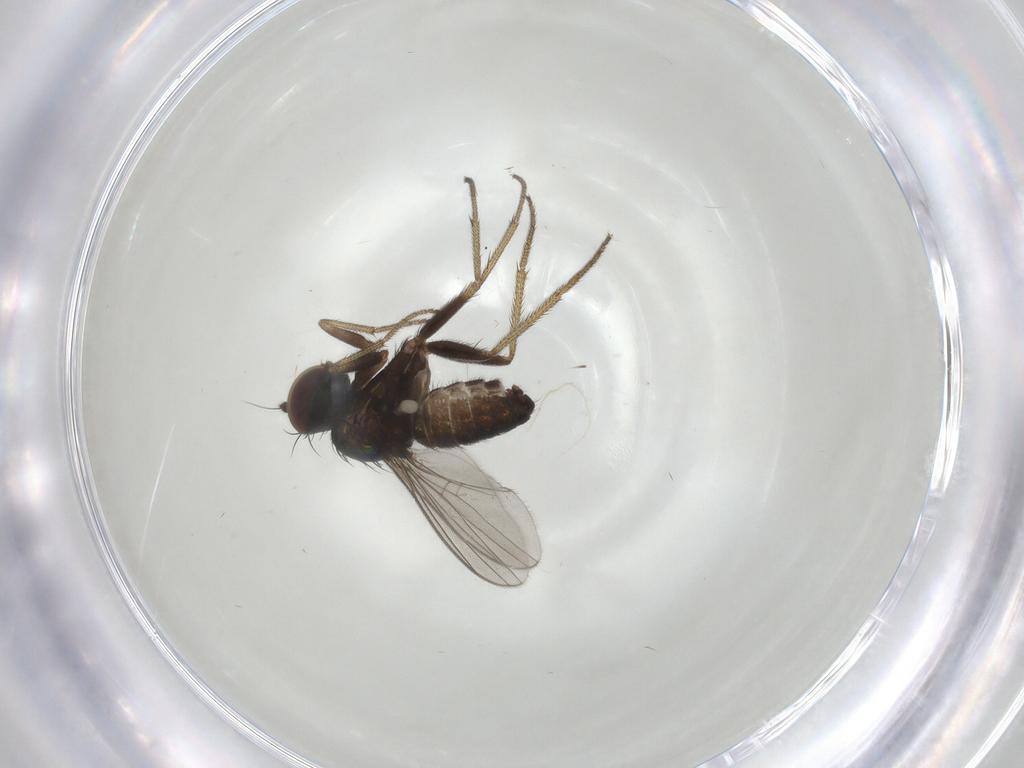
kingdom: Animalia
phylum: Arthropoda
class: Insecta
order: Diptera
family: Dolichopodidae
